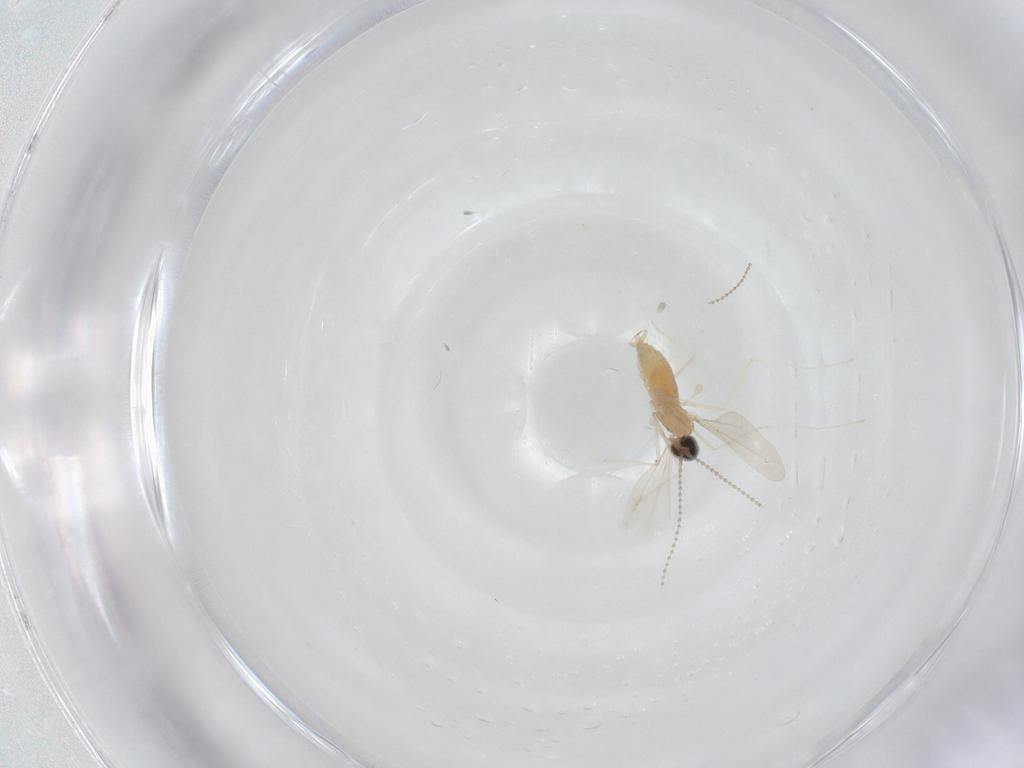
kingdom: Animalia
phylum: Arthropoda
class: Insecta
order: Diptera
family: Cecidomyiidae
